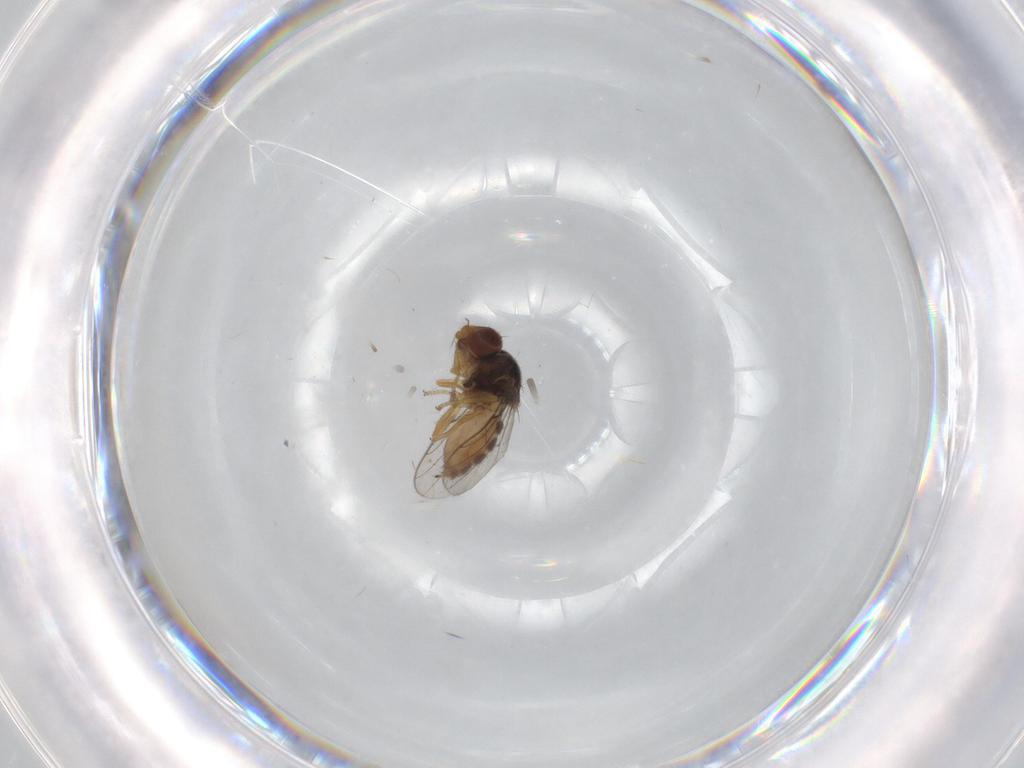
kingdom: Animalia
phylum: Arthropoda
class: Insecta
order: Diptera
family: Chloropidae
